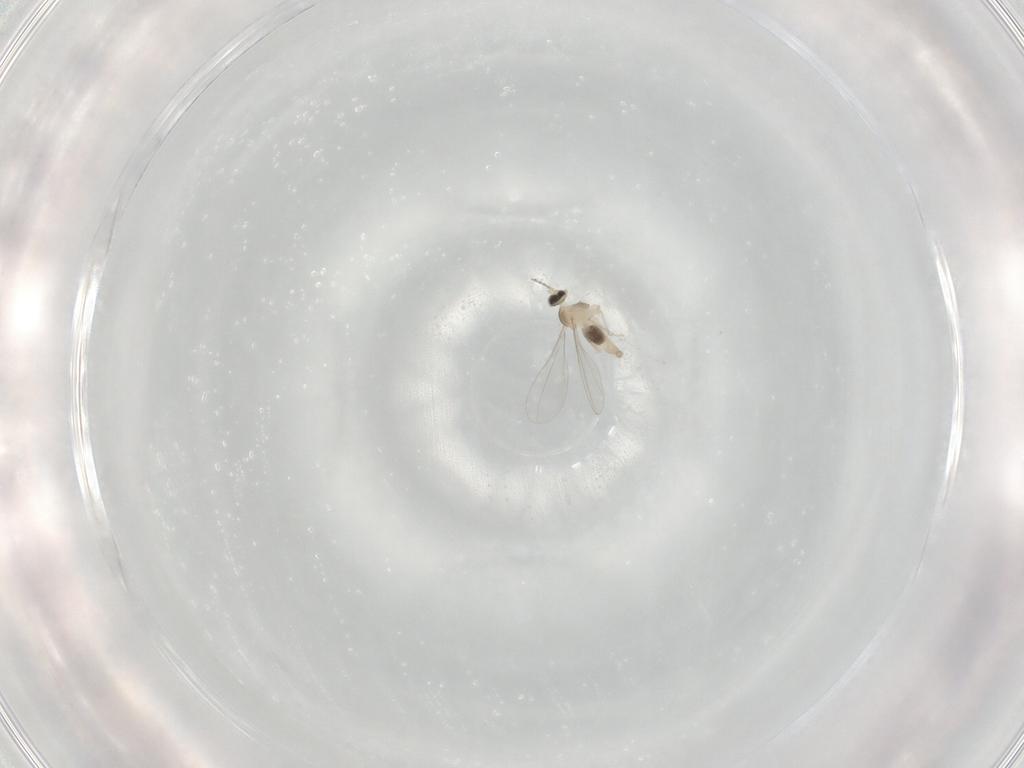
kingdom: Animalia
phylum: Arthropoda
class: Insecta
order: Diptera
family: Cecidomyiidae
